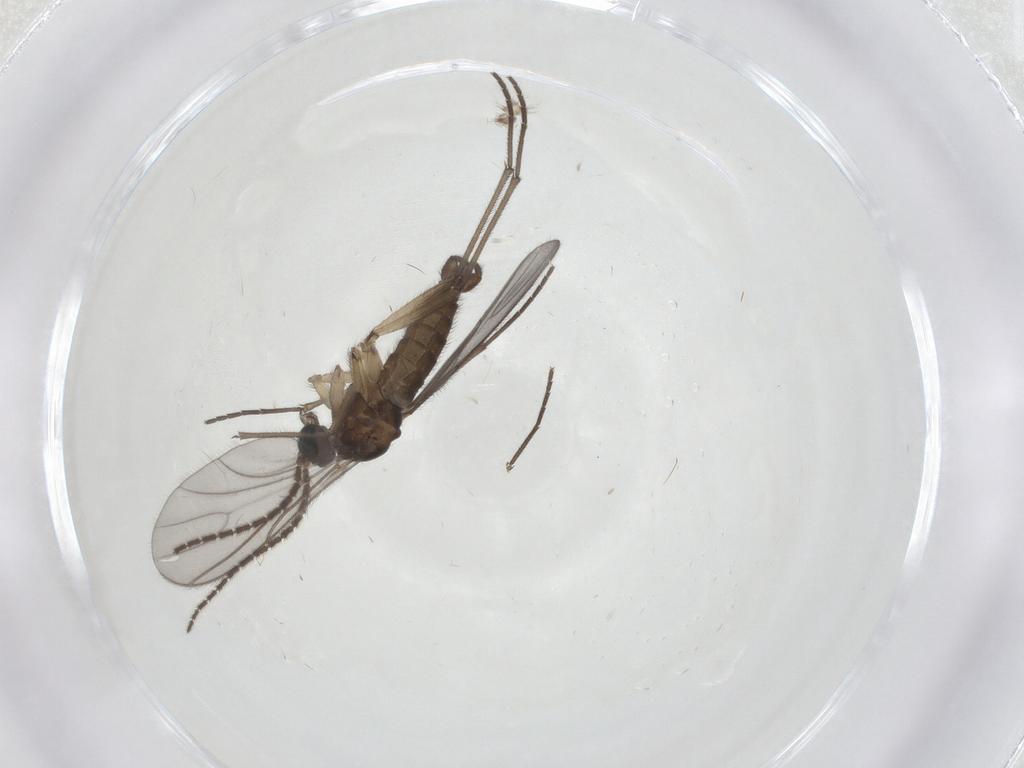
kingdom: Animalia
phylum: Arthropoda
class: Insecta
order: Diptera
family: Sciaridae
